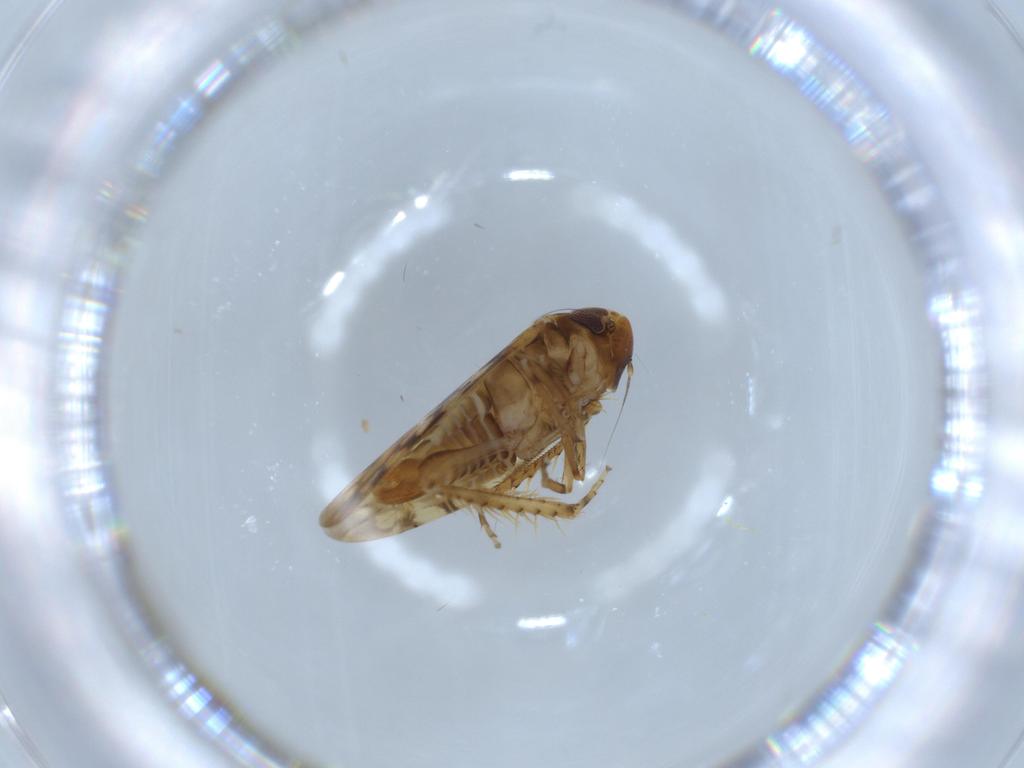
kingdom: Animalia
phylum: Arthropoda
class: Insecta
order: Hemiptera
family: Cicadellidae
